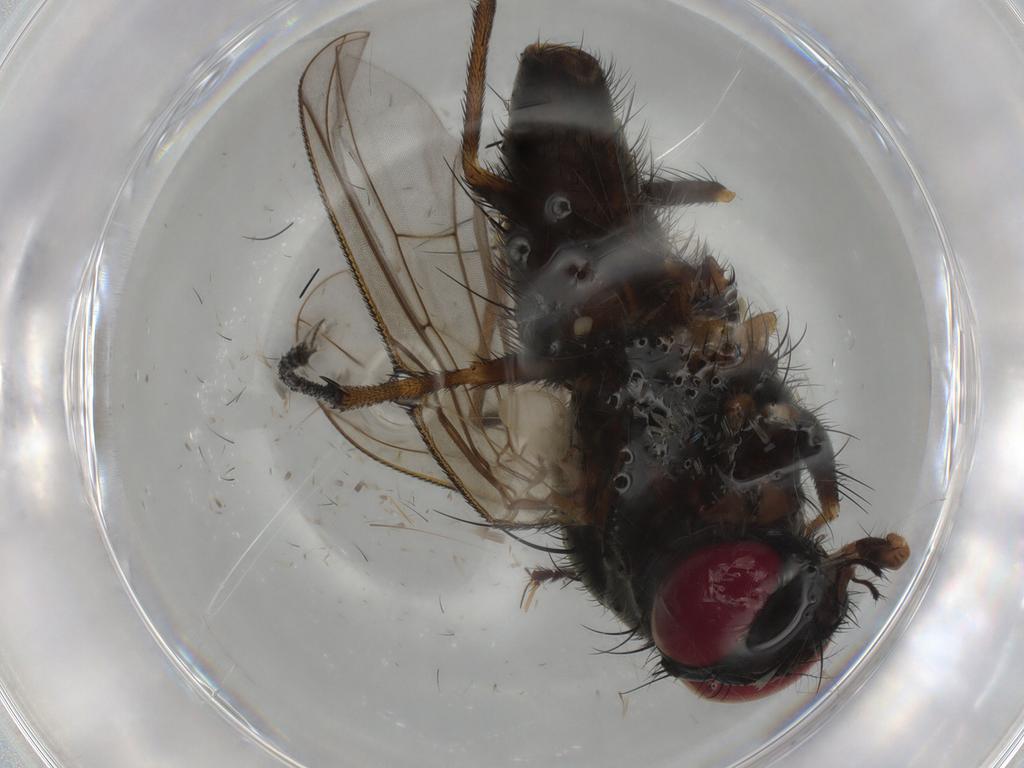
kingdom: Animalia
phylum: Arthropoda
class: Insecta
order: Diptera
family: Muscidae
